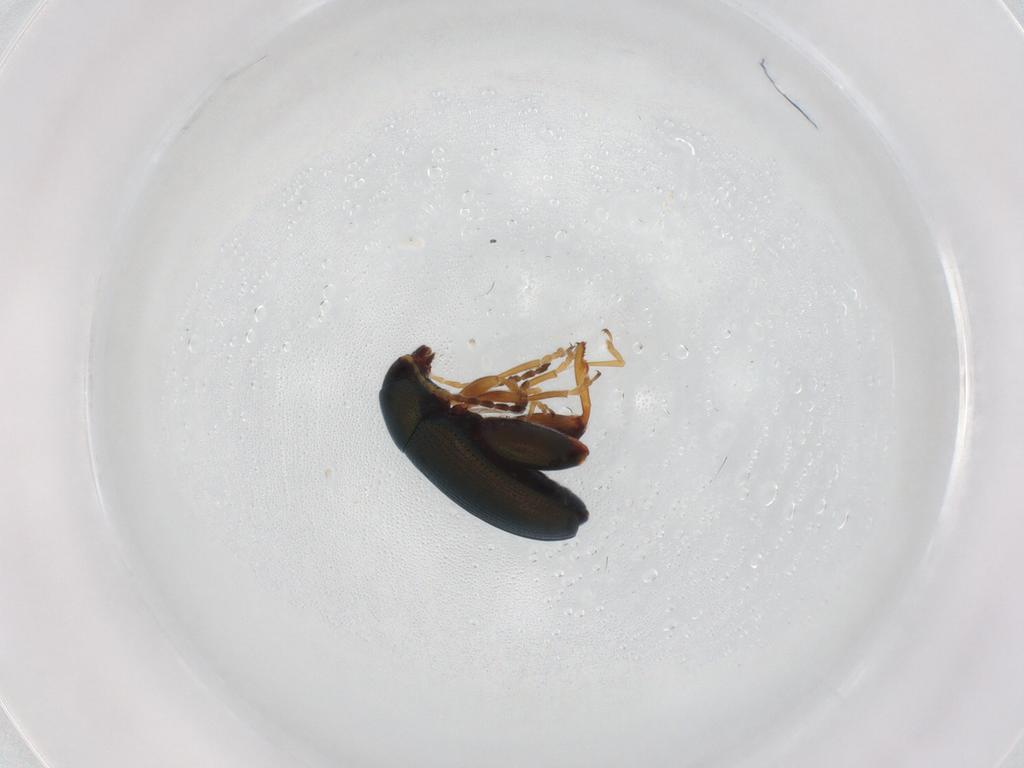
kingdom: Animalia
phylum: Arthropoda
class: Insecta
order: Coleoptera
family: Chrysomelidae
